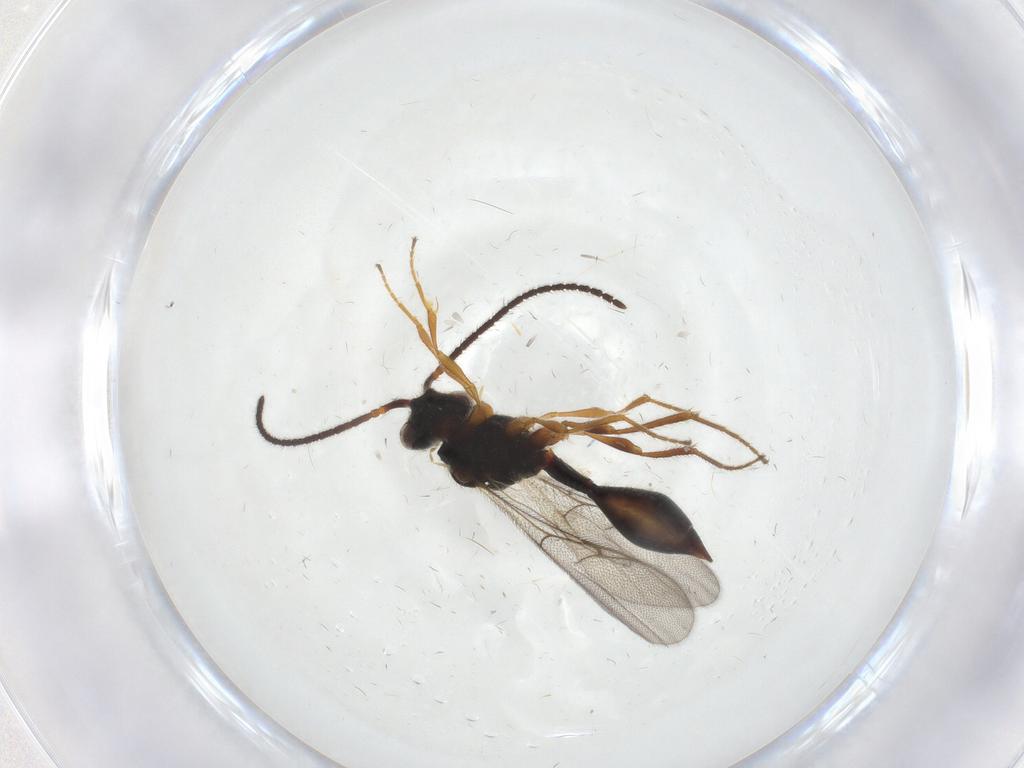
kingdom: Animalia
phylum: Arthropoda
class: Insecta
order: Hymenoptera
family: Diapriidae
